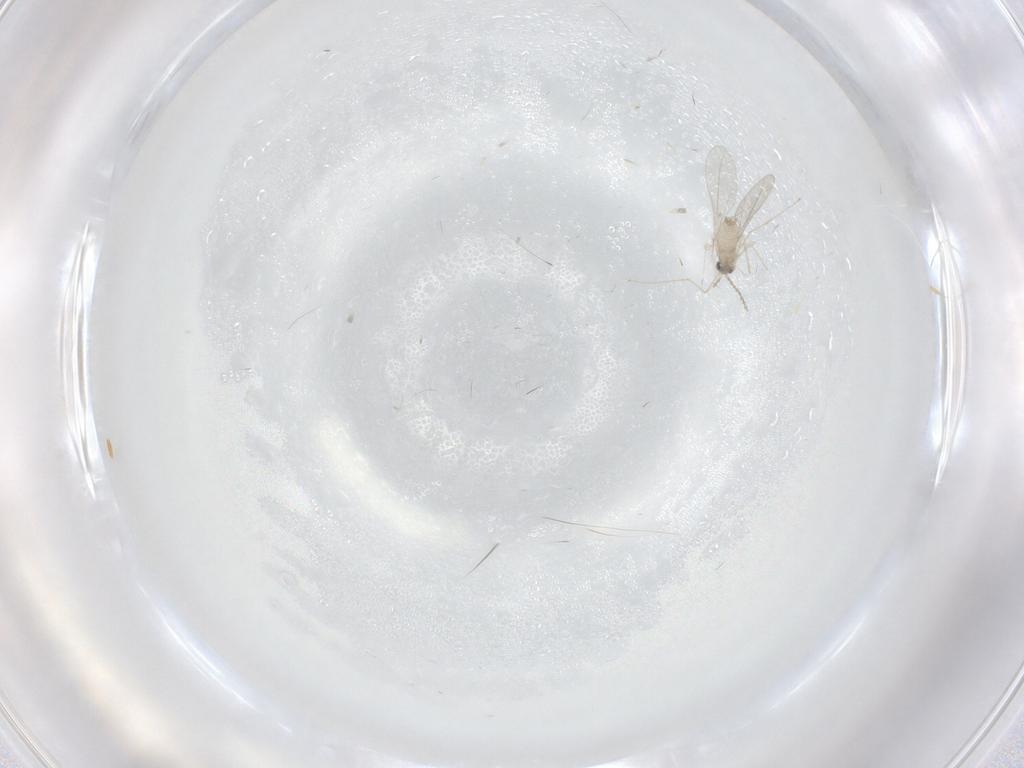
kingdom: Animalia
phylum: Arthropoda
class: Insecta
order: Diptera
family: Cecidomyiidae
